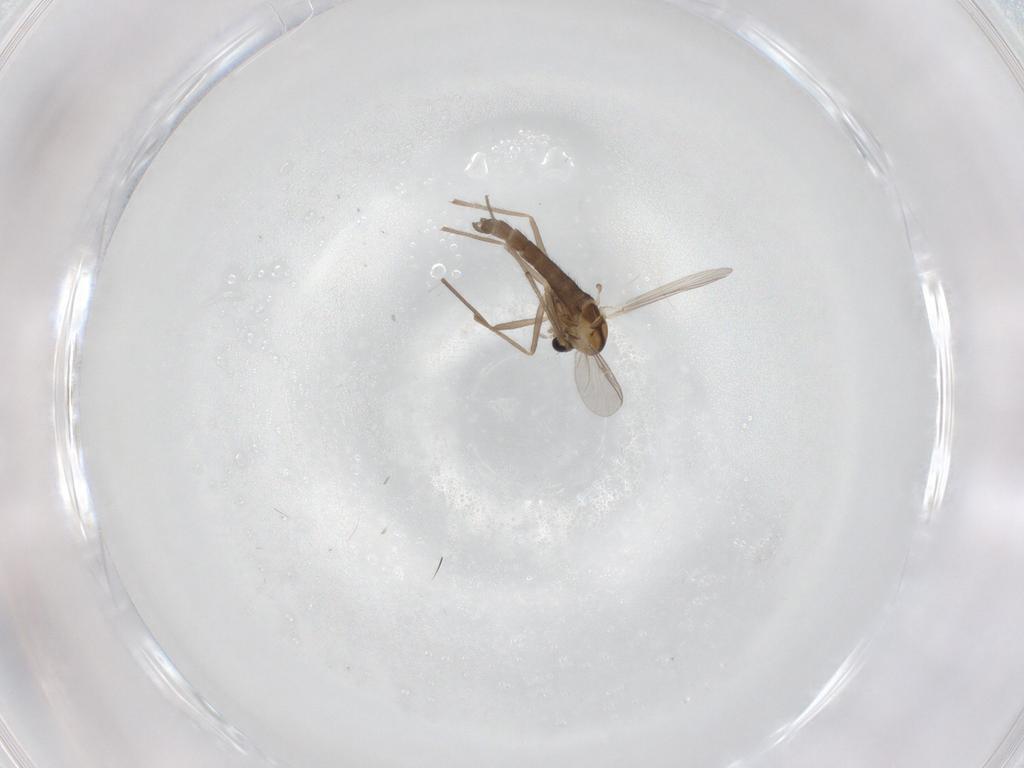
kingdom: Animalia
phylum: Arthropoda
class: Insecta
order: Diptera
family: Chironomidae
